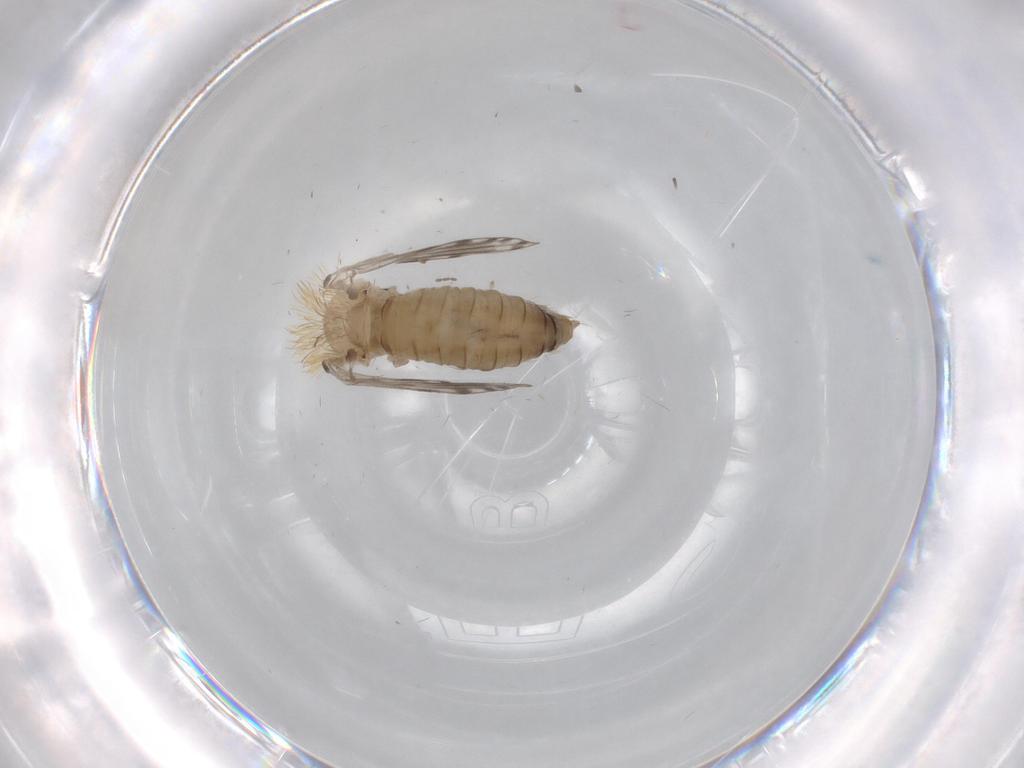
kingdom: Animalia
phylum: Arthropoda
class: Insecta
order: Diptera
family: Psychodidae
